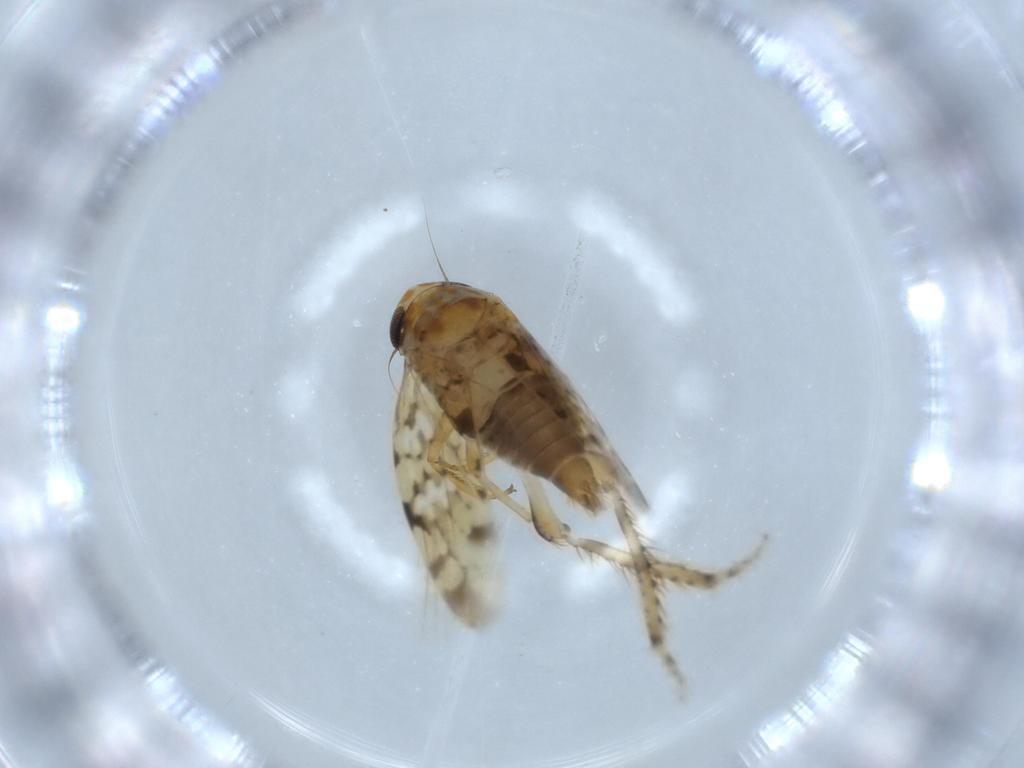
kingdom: Animalia
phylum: Arthropoda
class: Insecta
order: Hemiptera
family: Cicadellidae
